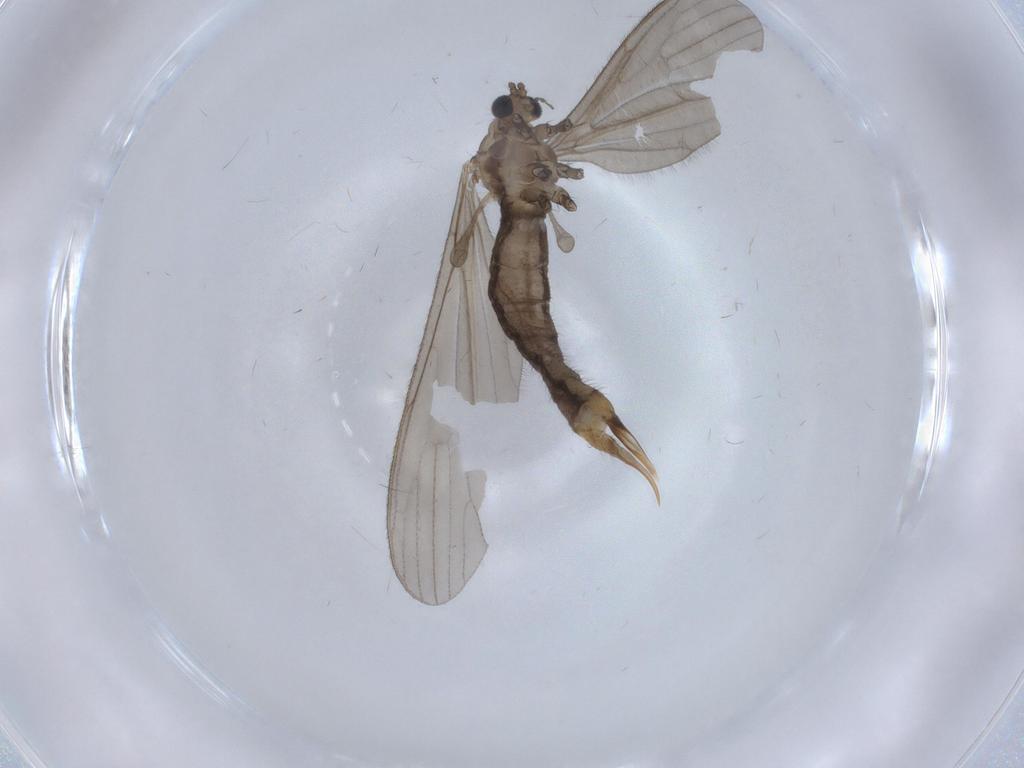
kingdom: Animalia
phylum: Arthropoda
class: Insecta
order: Diptera
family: Limoniidae
